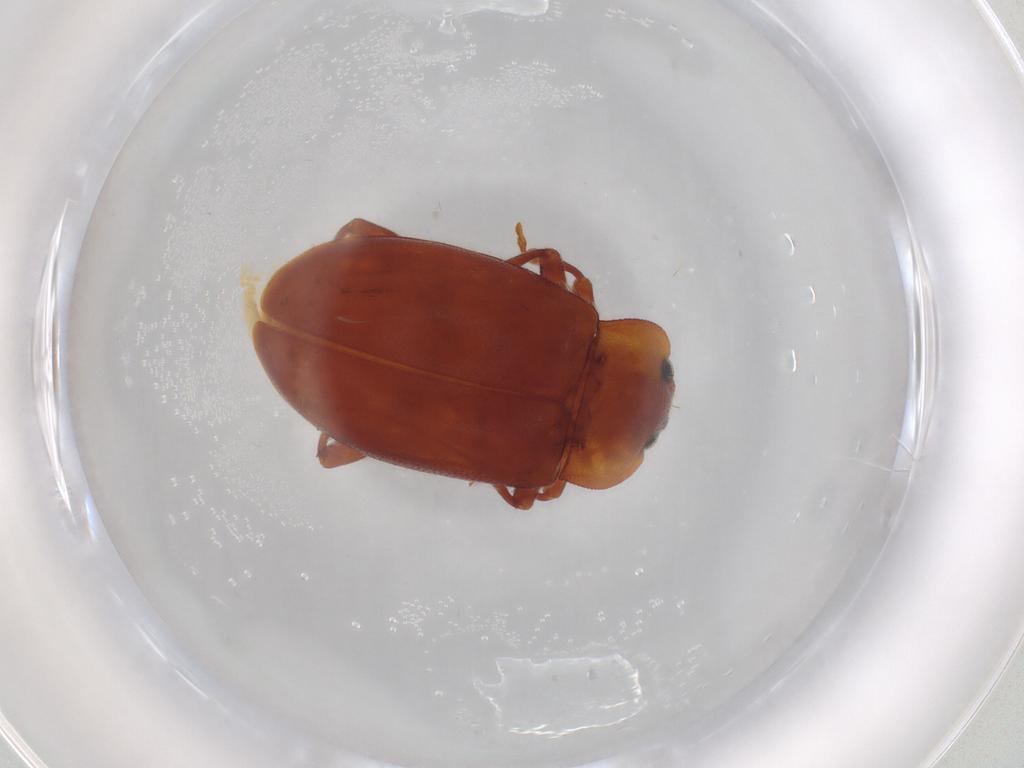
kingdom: Animalia
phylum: Arthropoda
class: Insecta
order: Coleoptera
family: Endomychidae
